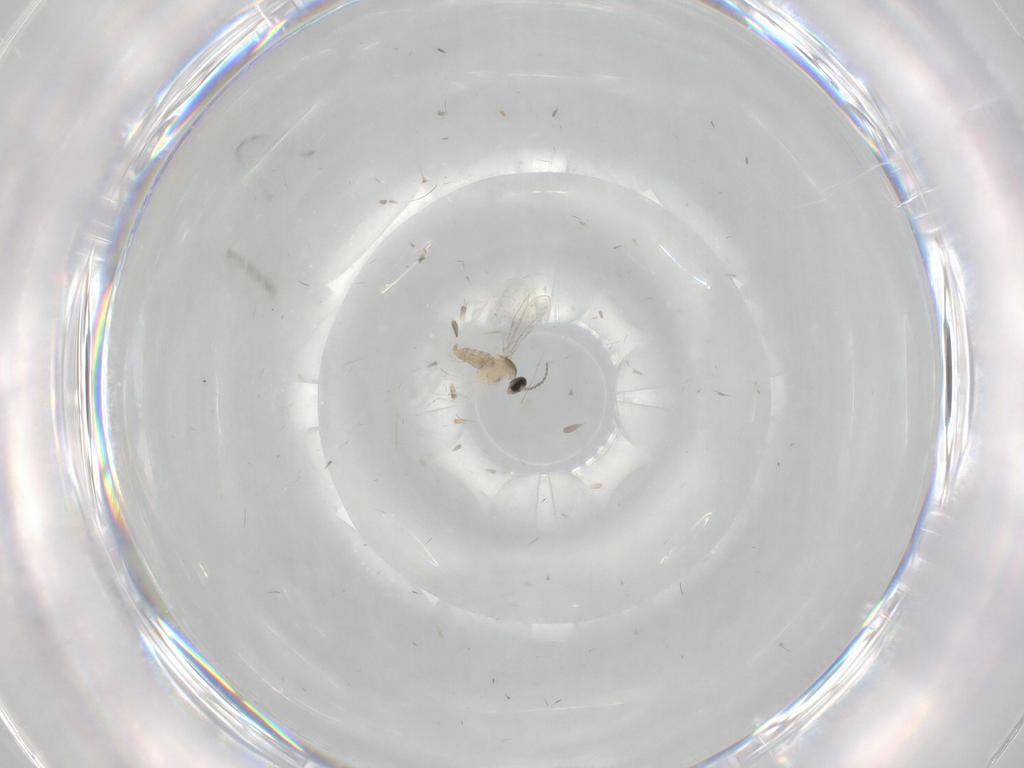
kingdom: Animalia
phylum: Arthropoda
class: Insecta
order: Diptera
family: Cecidomyiidae
